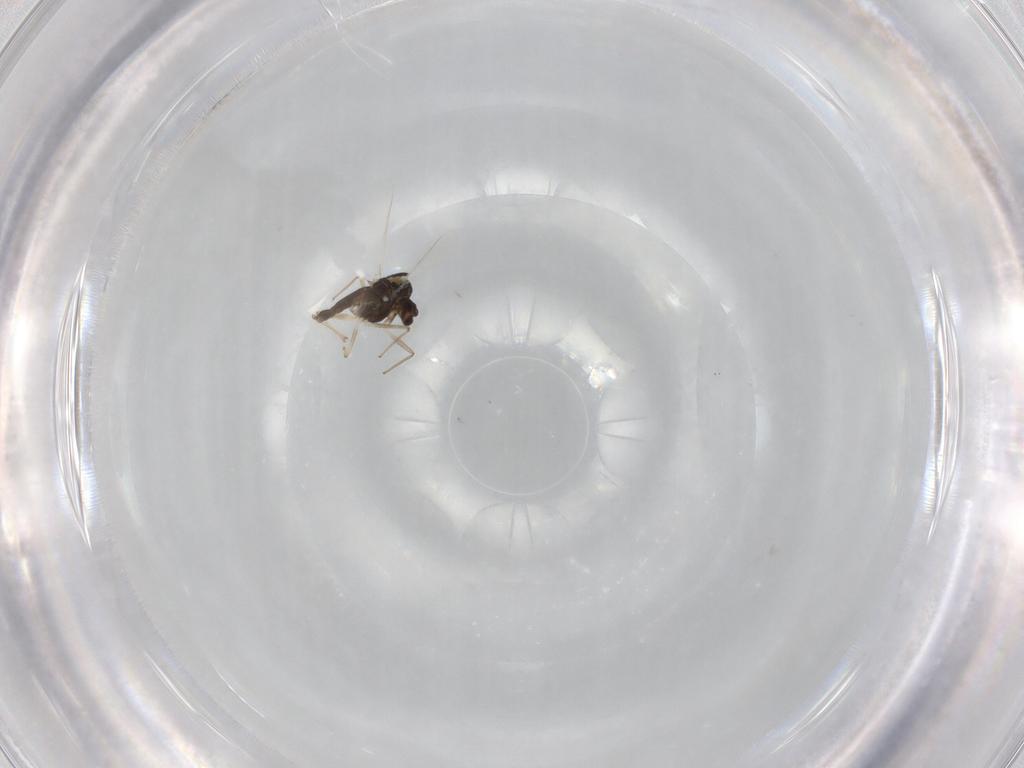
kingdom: Animalia
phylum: Arthropoda
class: Insecta
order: Diptera
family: Chironomidae
